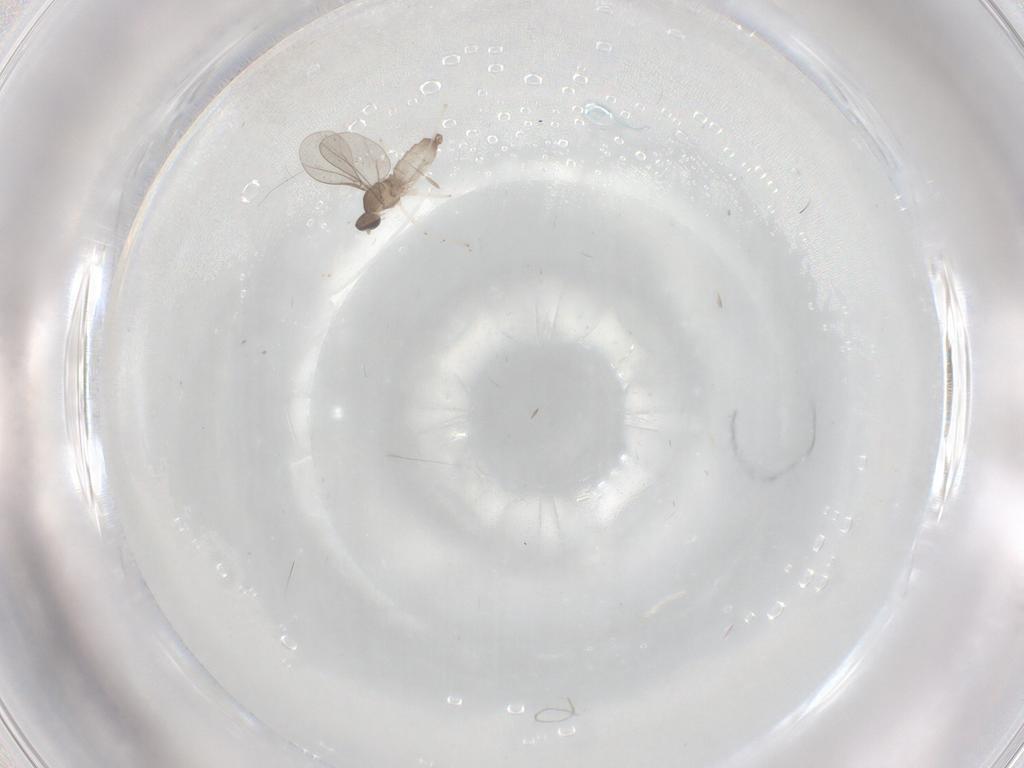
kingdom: Animalia
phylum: Arthropoda
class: Insecta
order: Diptera
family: Cecidomyiidae
